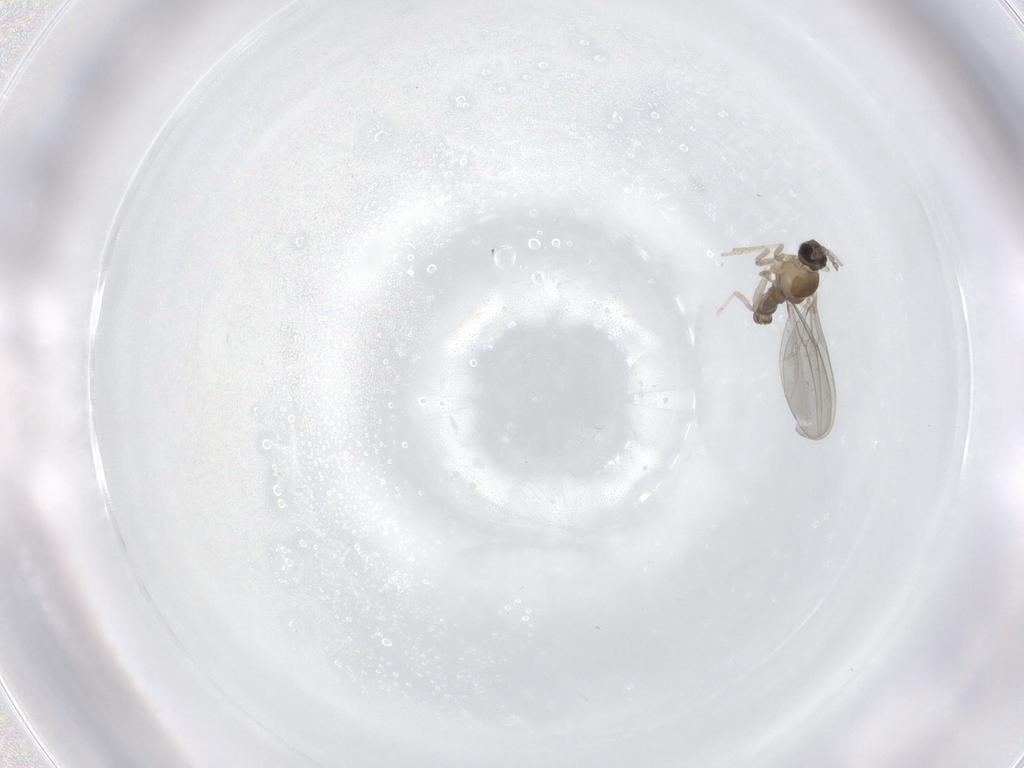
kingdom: Animalia
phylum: Arthropoda
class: Insecta
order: Diptera
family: Cecidomyiidae
